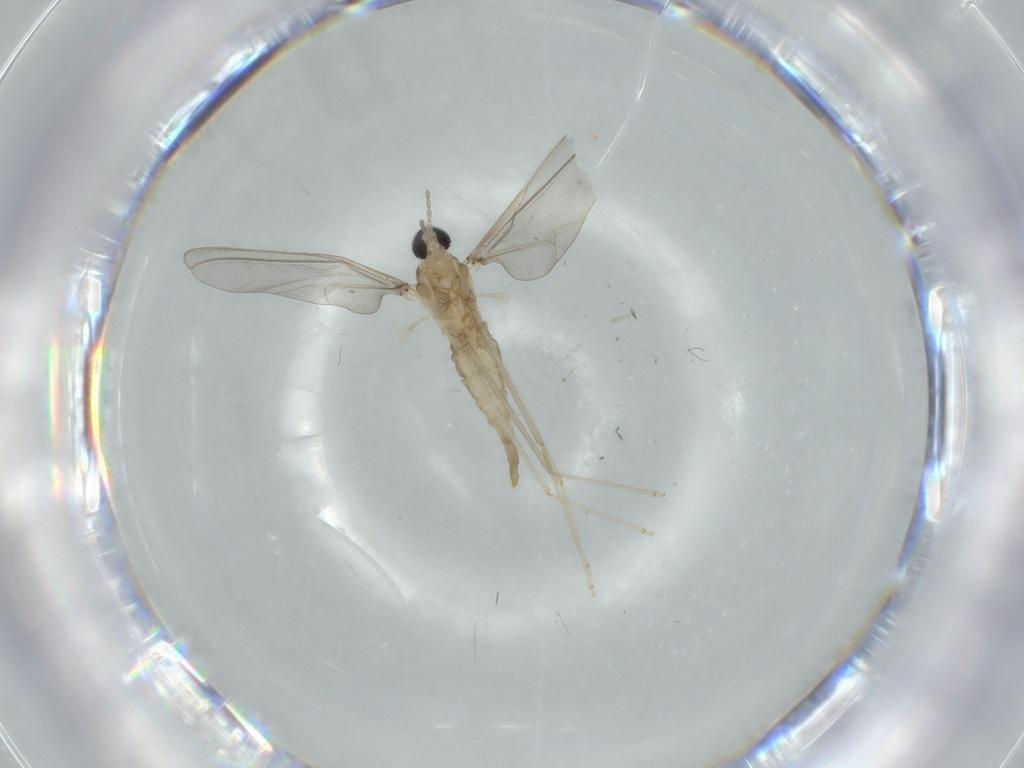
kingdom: Animalia
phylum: Arthropoda
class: Insecta
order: Diptera
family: Cecidomyiidae
